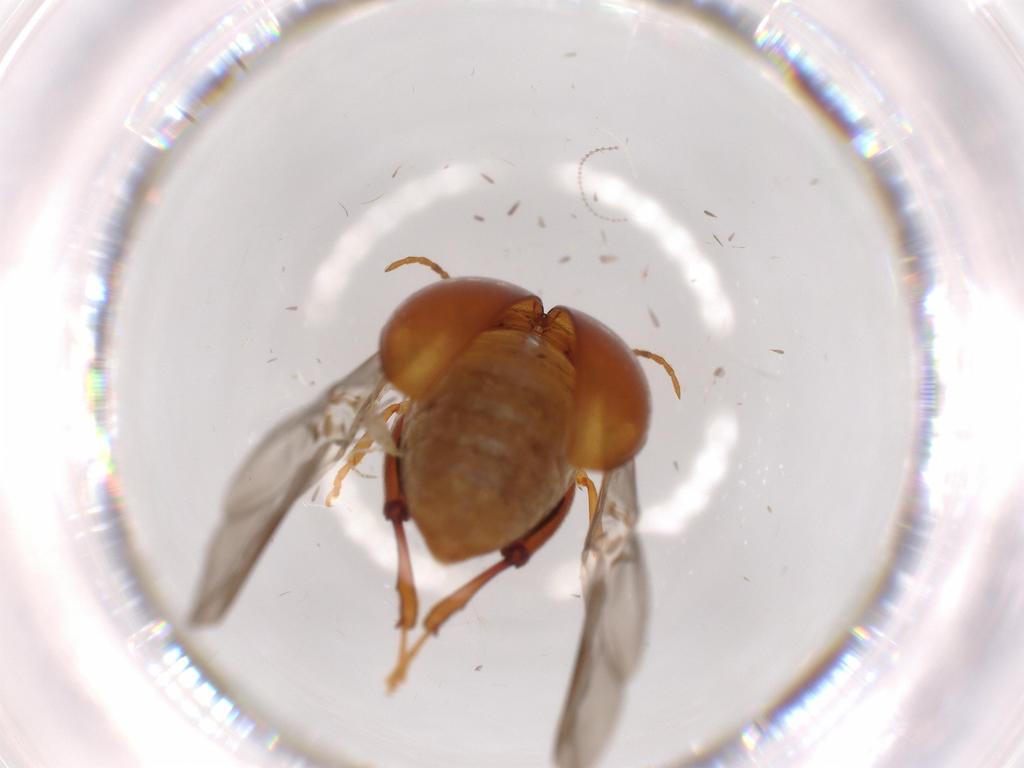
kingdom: Animalia
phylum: Arthropoda
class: Insecta
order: Coleoptera
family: Chrysomelidae
